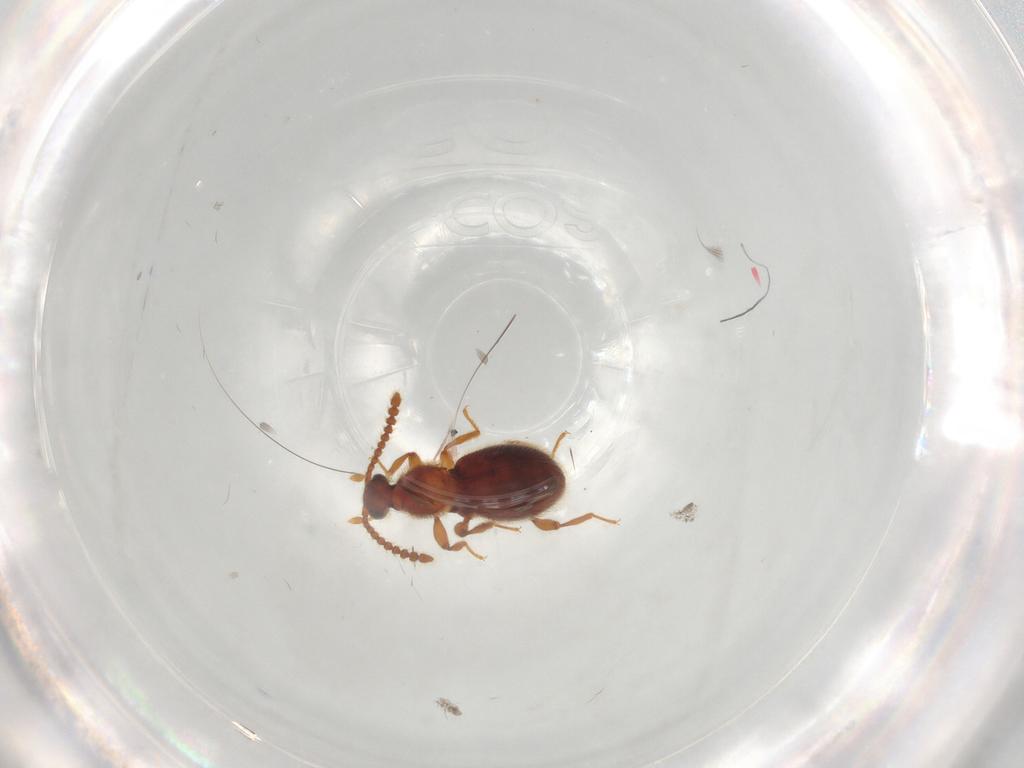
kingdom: Animalia
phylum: Arthropoda
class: Insecta
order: Coleoptera
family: Staphylinidae
